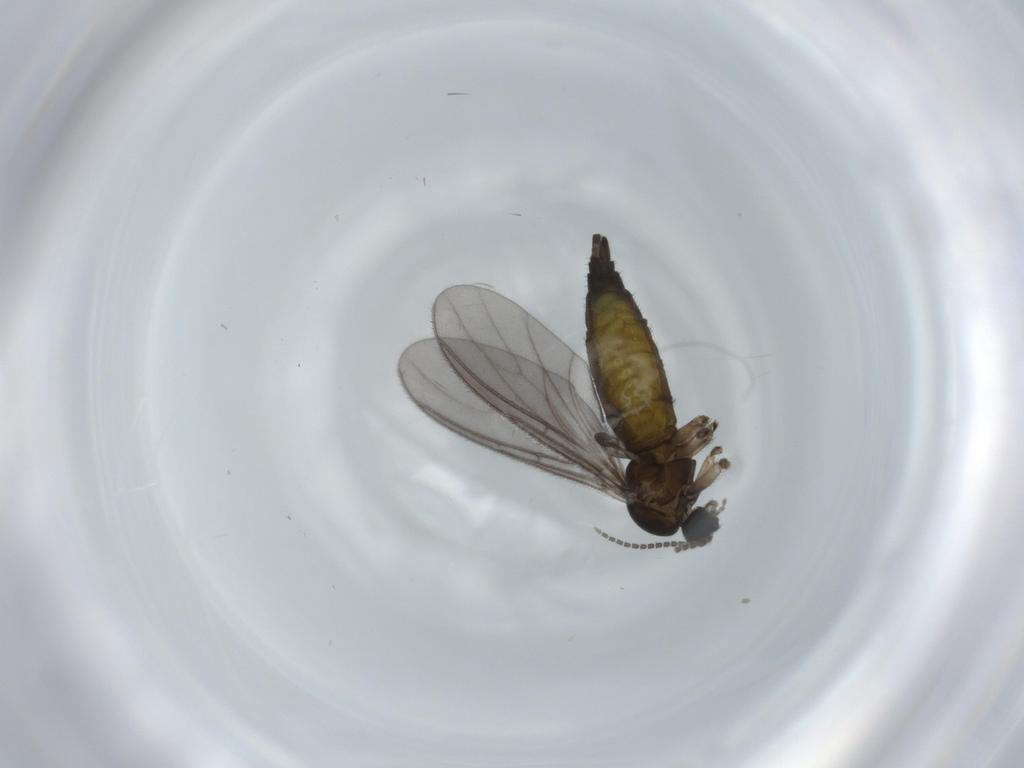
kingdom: Animalia
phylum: Arthropoda
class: Insecta
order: Diptera
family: Sciaridae
